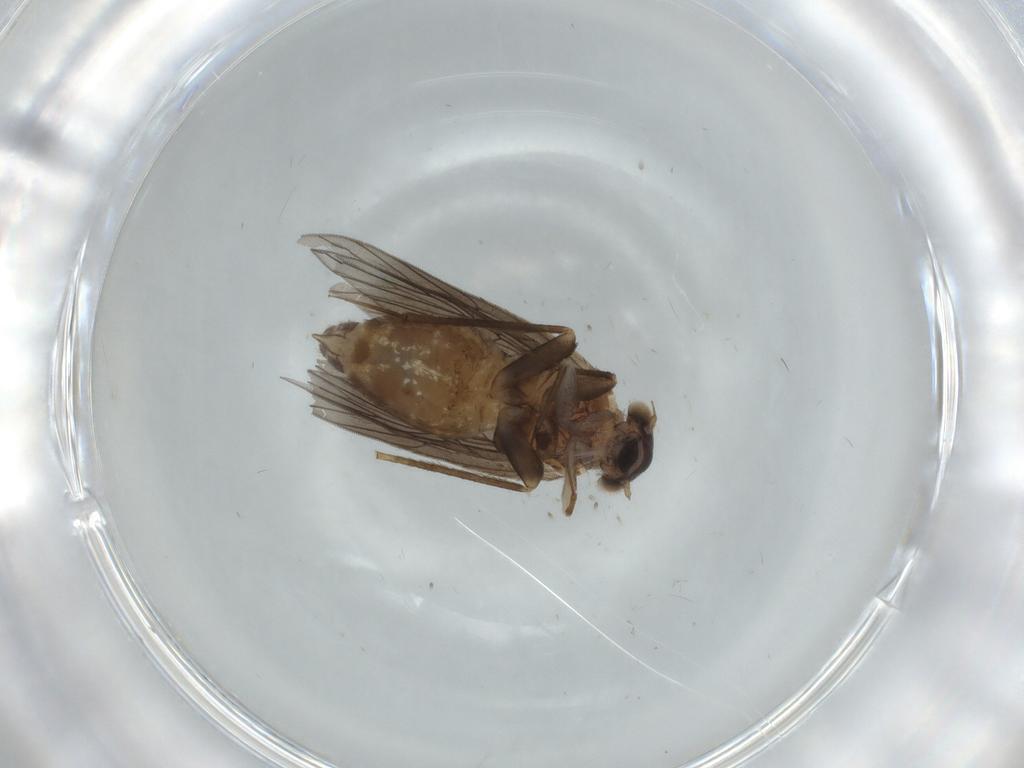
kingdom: Animalia
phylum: Arthropoda
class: Insecta
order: Psocodea
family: Lepidopsocidae
